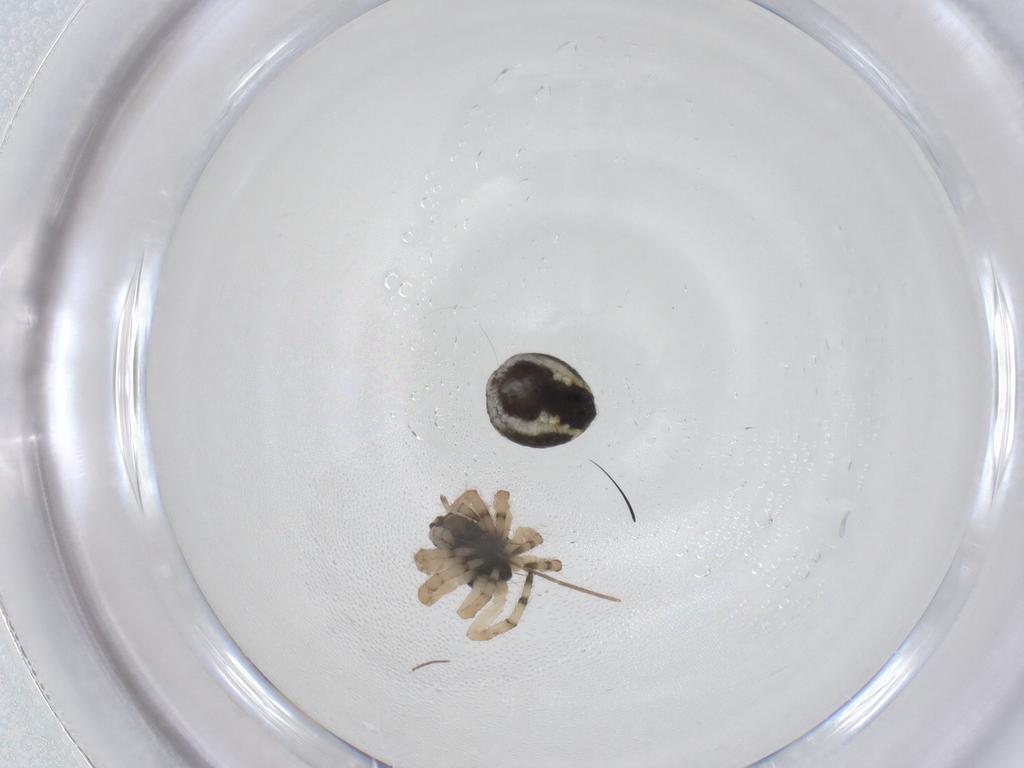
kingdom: Animalia
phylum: Arthropoda
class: Arachnida
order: Araneae
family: Araneidae
